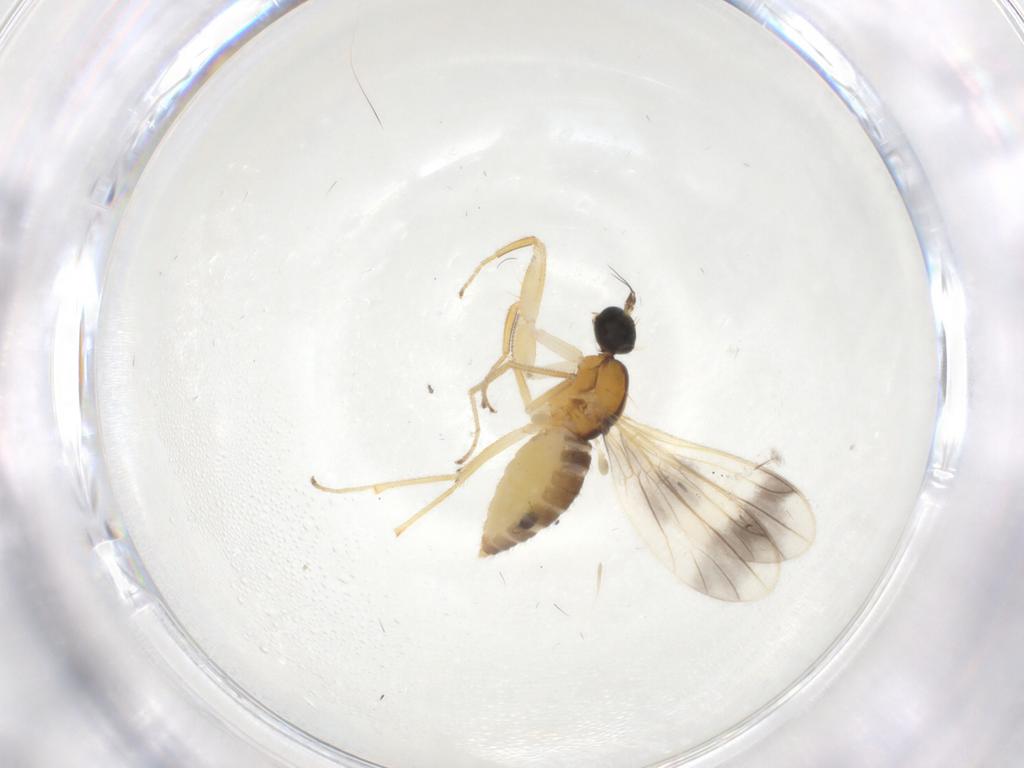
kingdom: Animalia
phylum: Arthropoda
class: Insecta
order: Diptera
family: Empididae
